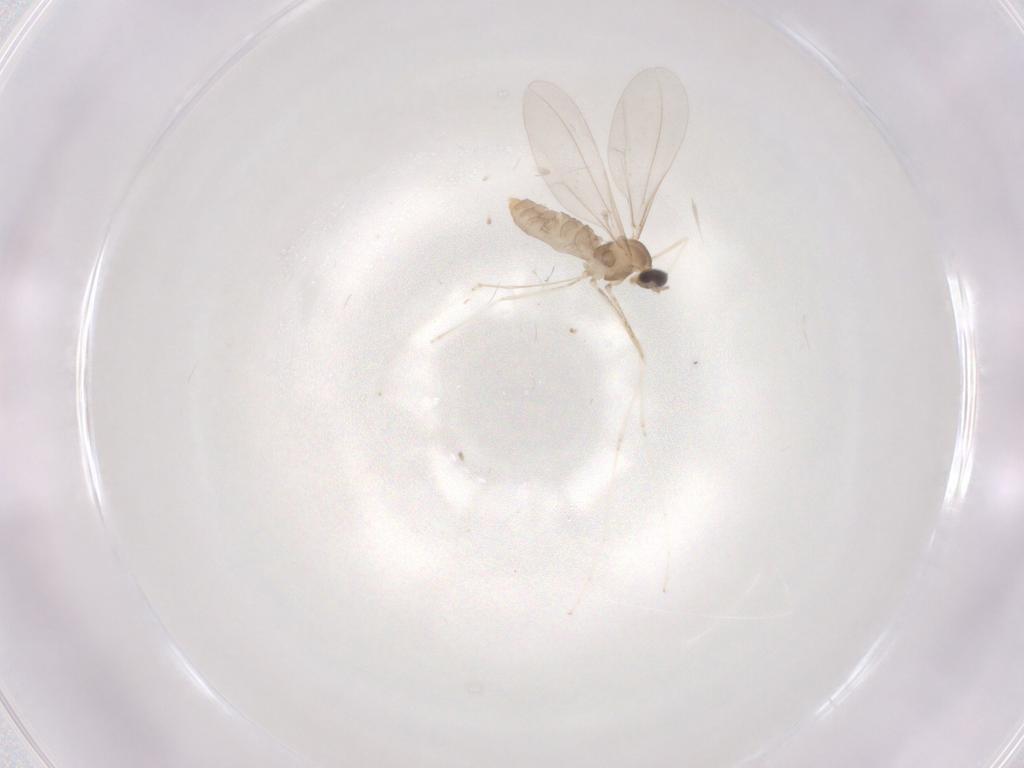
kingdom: Animalia
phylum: Arthropoda
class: Insecta
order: Diptera
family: Cecidomyiidae
